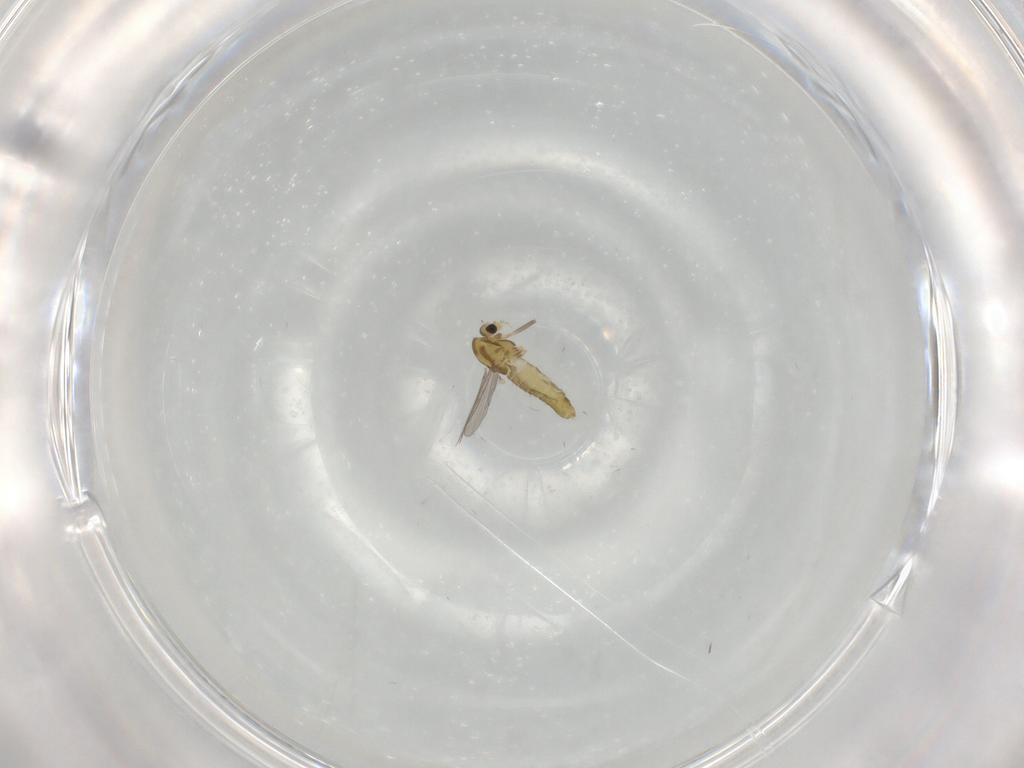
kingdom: Animalia
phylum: Arthropoda
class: Insecta
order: Diptera
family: Chironomidae
